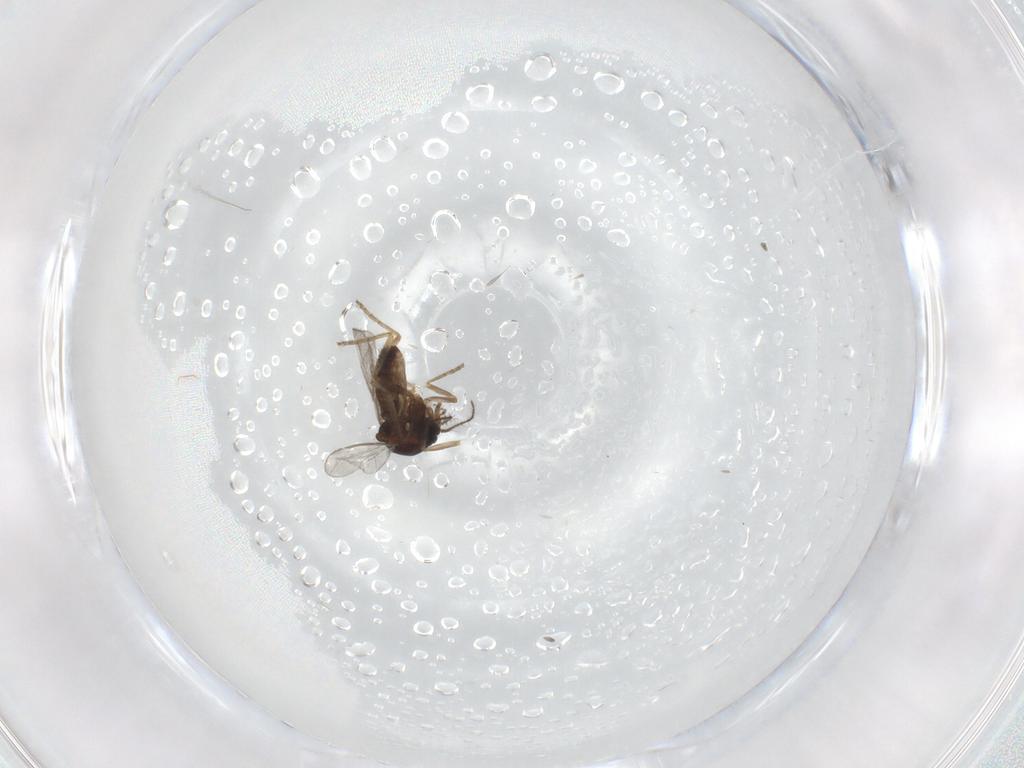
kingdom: Animalia
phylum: Arthropoda
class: Insecta
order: Diptera
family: Ceratopogonidae
